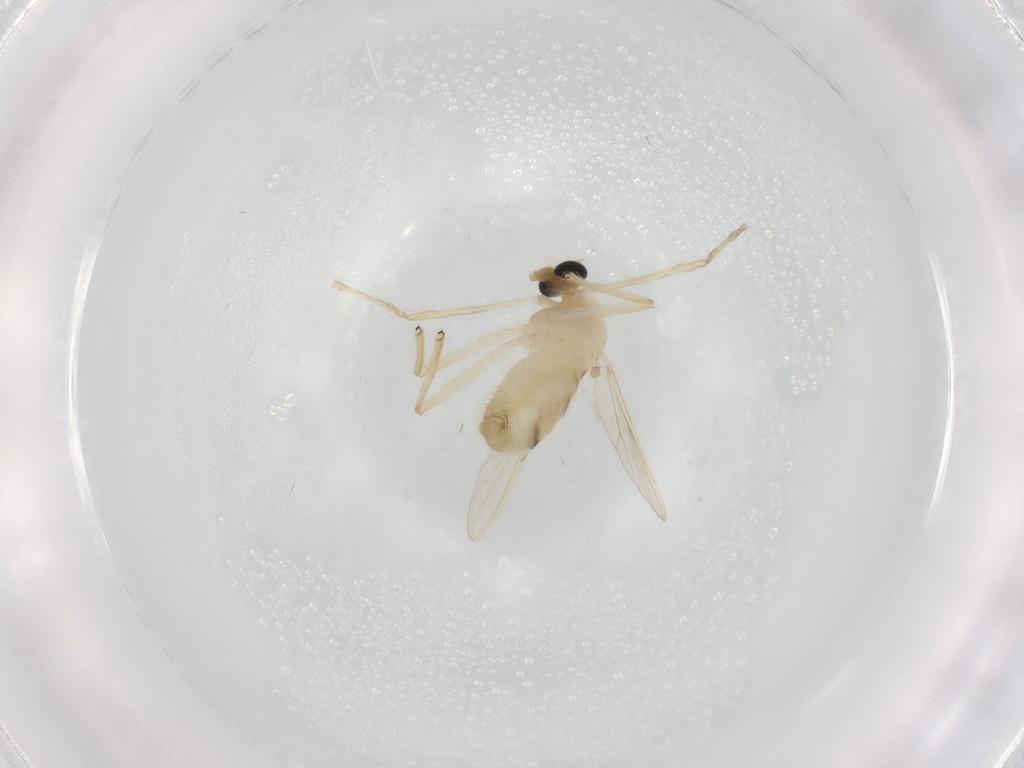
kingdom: Animalia
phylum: Arthropoda
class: Insecta
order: Diptera
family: Chironomidae
